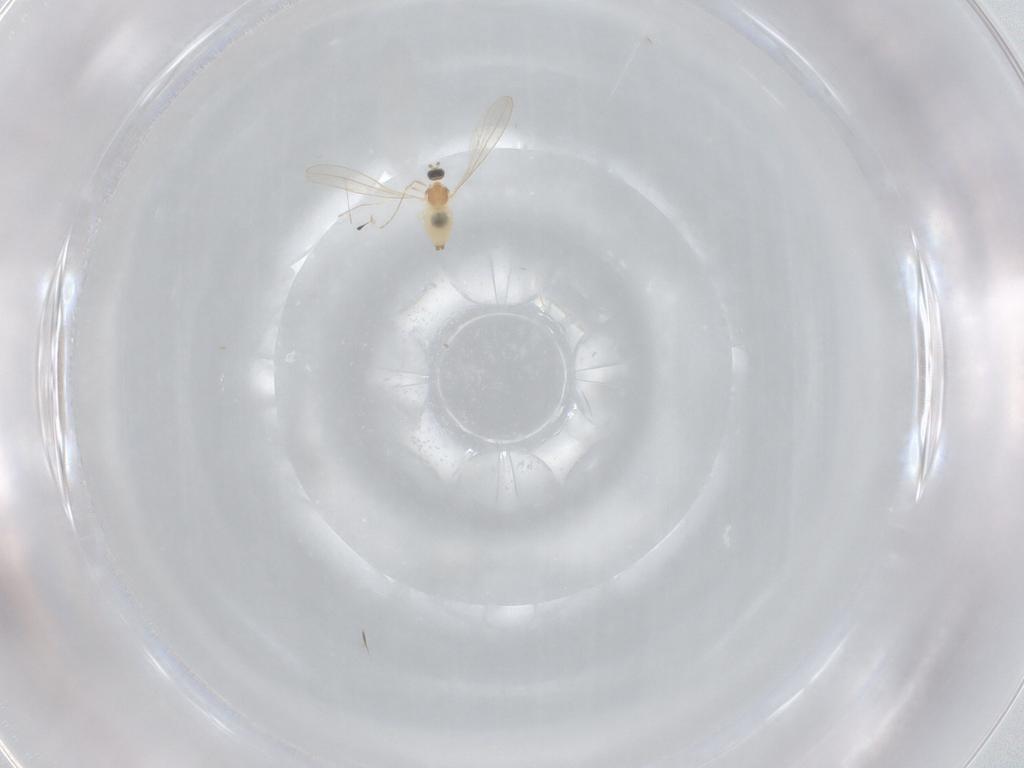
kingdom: Animalia
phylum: Arthropoda
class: Insecta
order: Diptera
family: Cecidomyiidae
